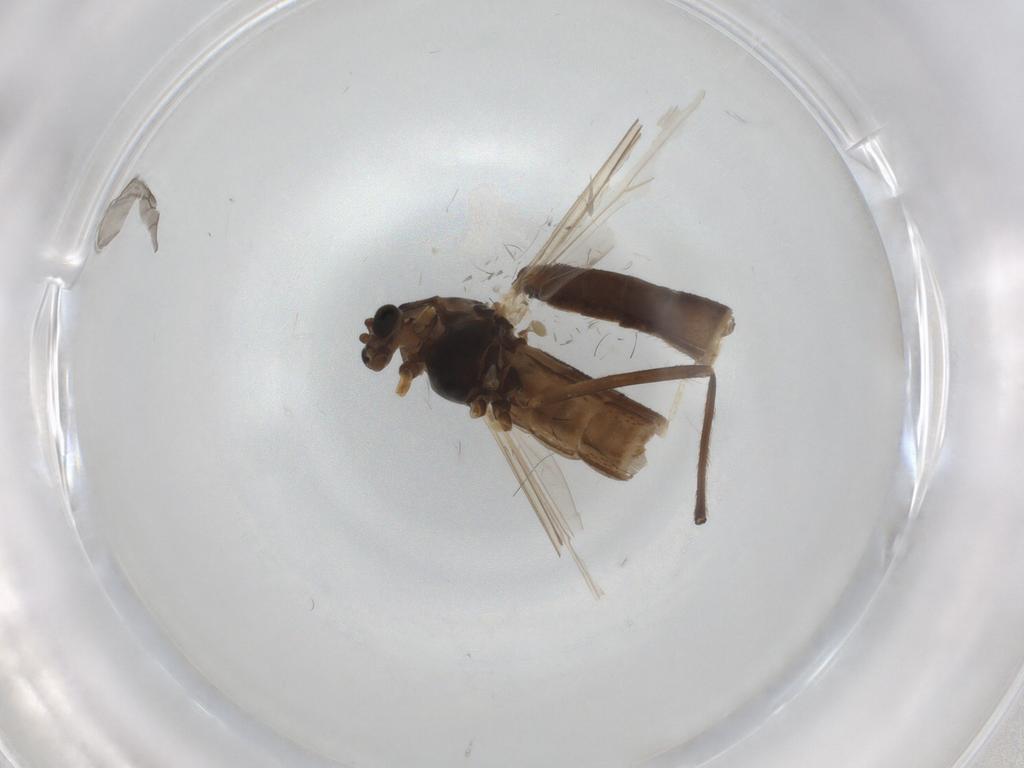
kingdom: Animalia
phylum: Arthropoda
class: Insecta
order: Diptera
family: Chironomidae
